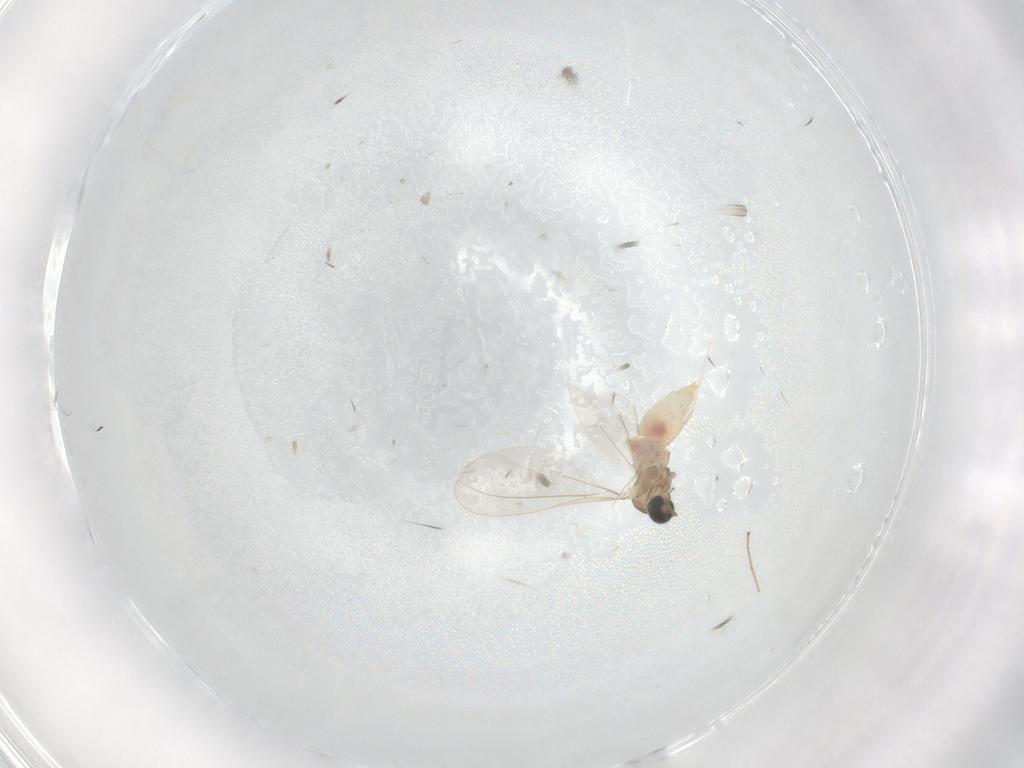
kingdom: Animalia
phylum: Arthropoda
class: Insecta
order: Diptera
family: Cecidomyiidae
